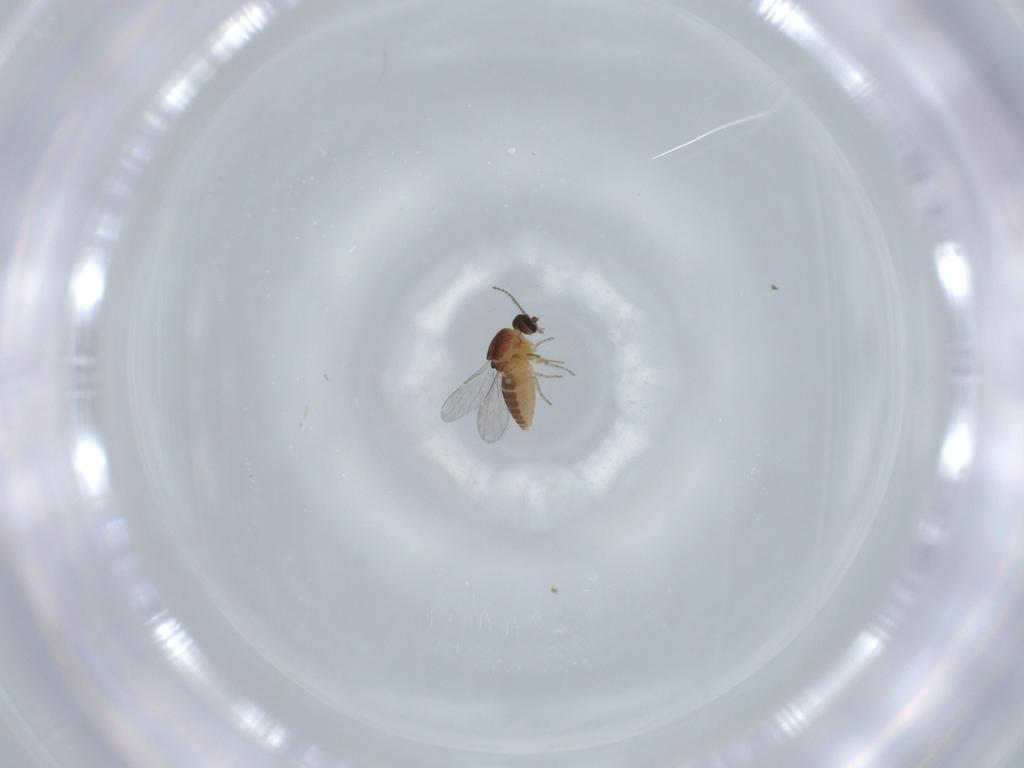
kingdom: Animalia
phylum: Arthropoda
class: Insecta
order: Diptera
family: Ceratopogonidae
